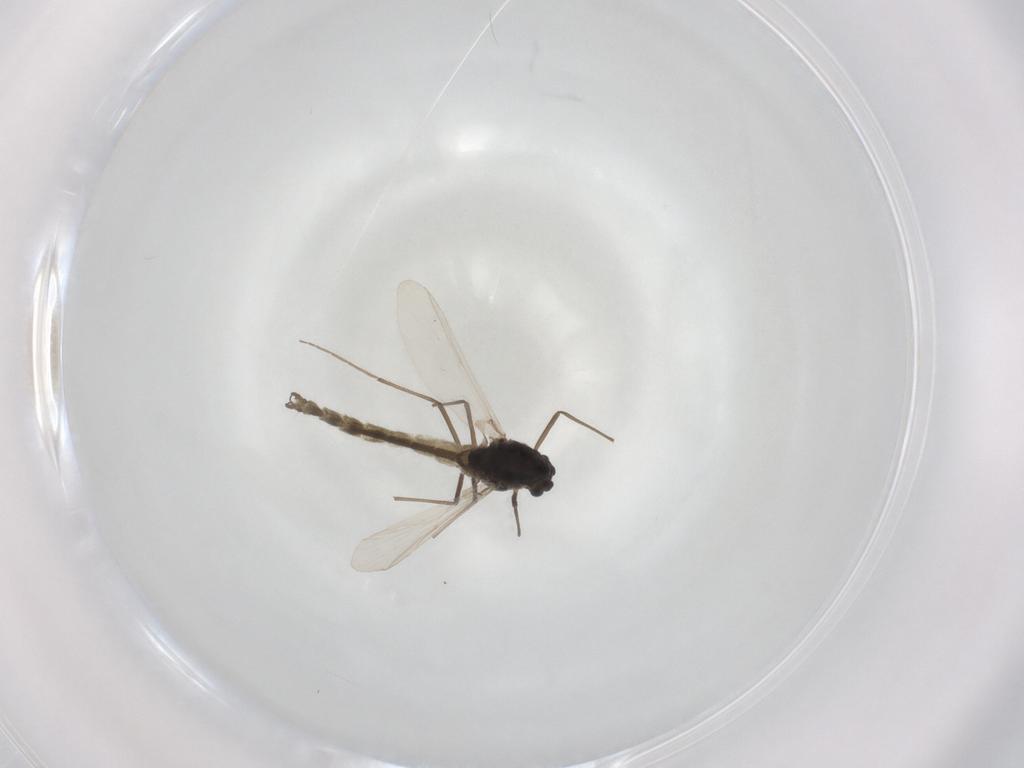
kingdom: Animalia
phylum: Arthropoda
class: Insecta
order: Diptera
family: Chironomidae
